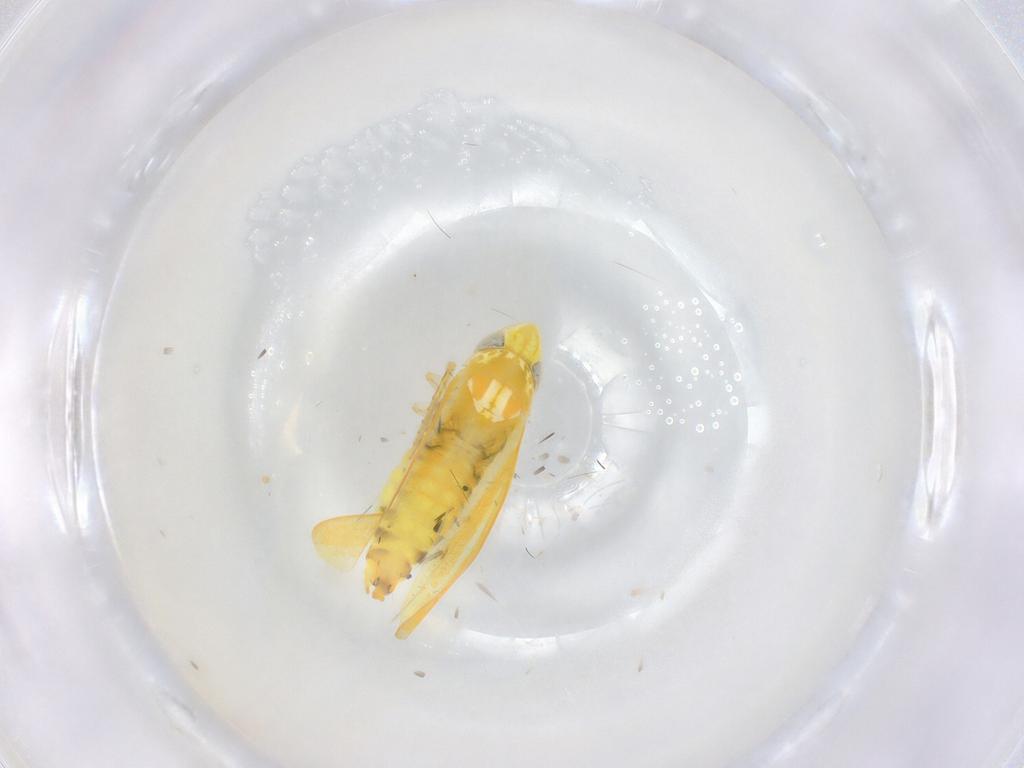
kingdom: Animalia
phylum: Arthropoda
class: Insecta
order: Hemiptera
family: Cicadellidae
